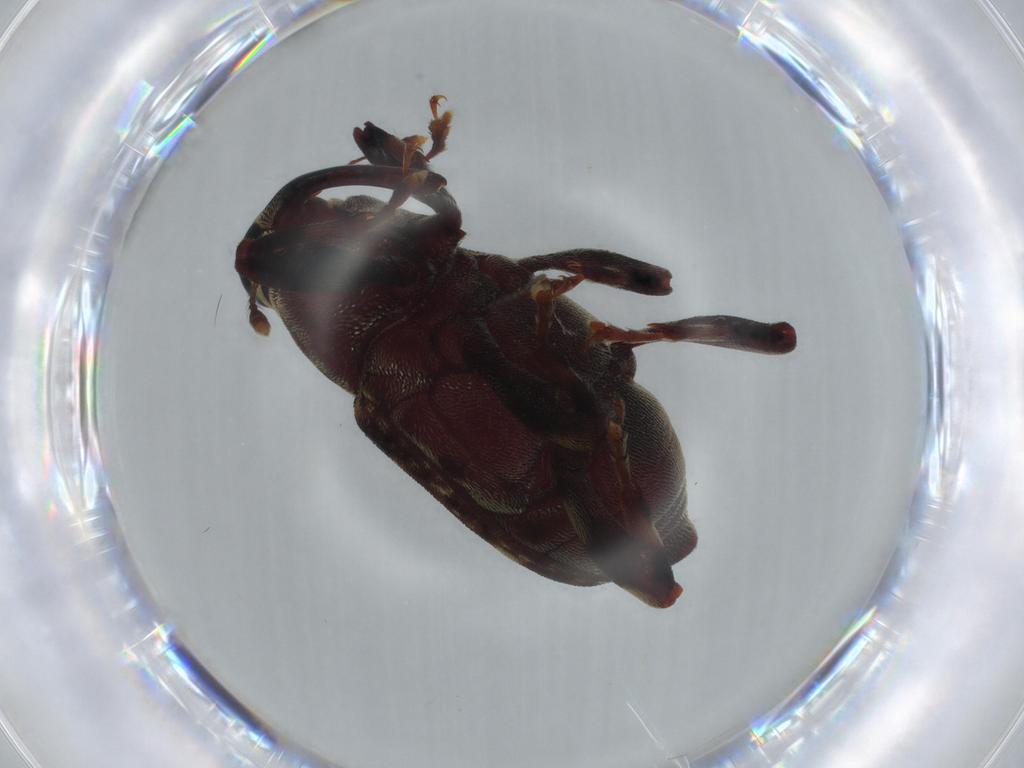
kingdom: Animalia
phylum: Arthropoda
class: Insecta
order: Coleoptera
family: Curculionidae
